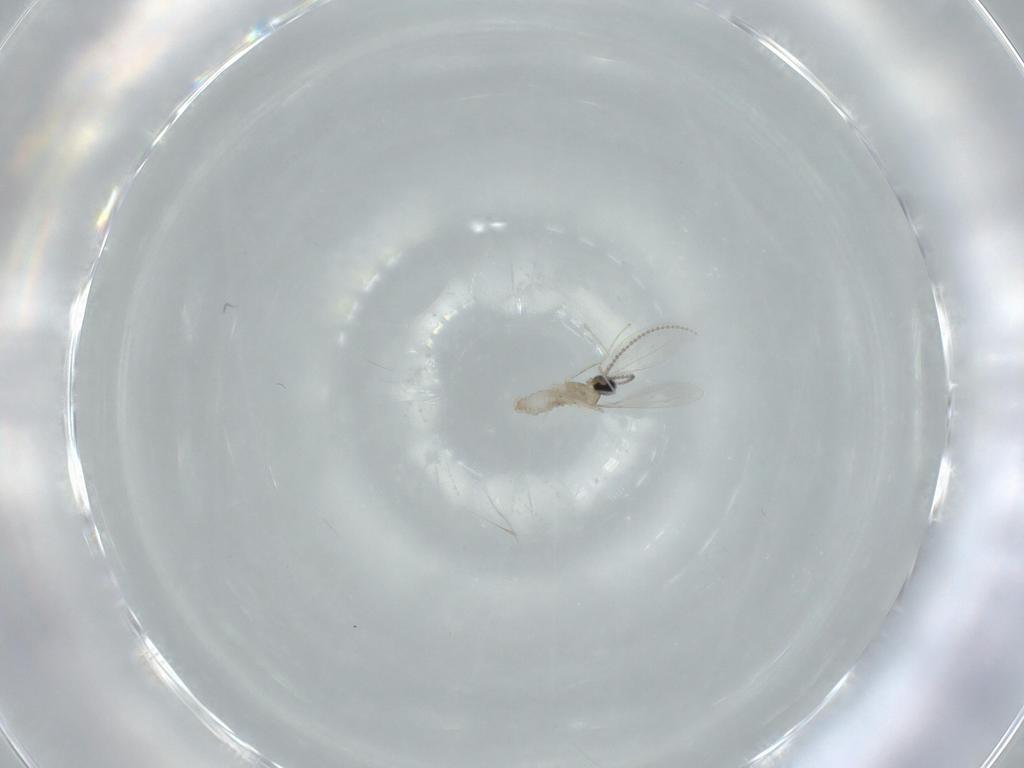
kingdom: Animalia
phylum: Arthropoda
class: Insecta
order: Diptera
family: Cecidomyiidae
